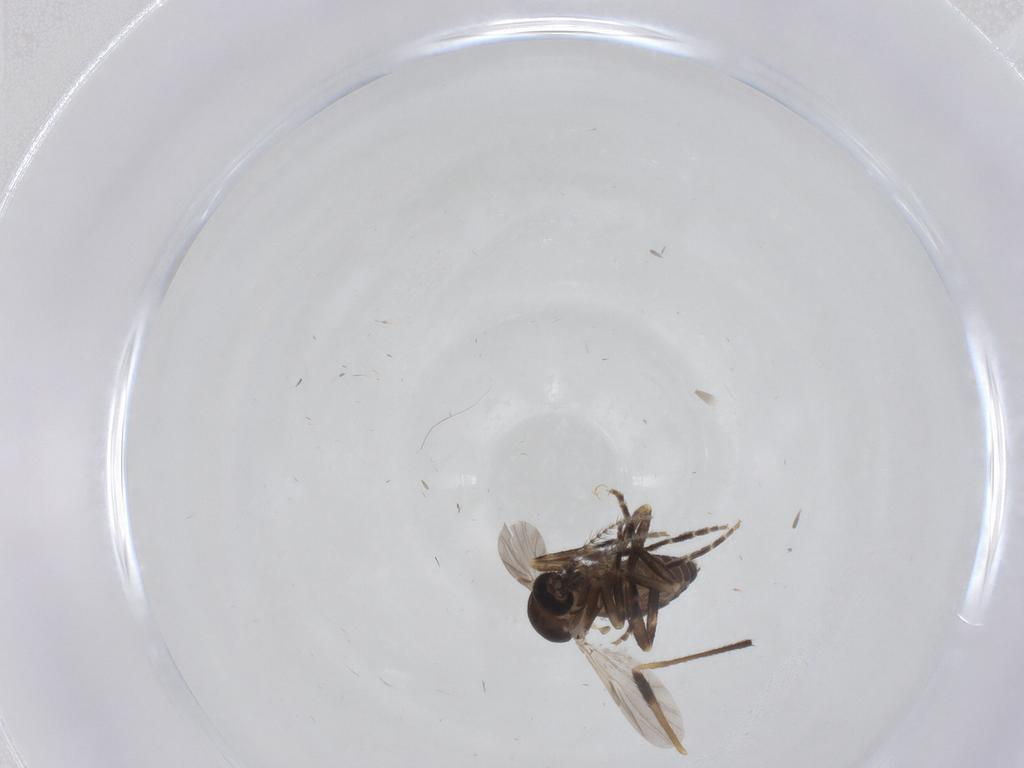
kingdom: Animalia
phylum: Arthropoda
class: Insecta
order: Diptera
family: Ceratopogonidae
